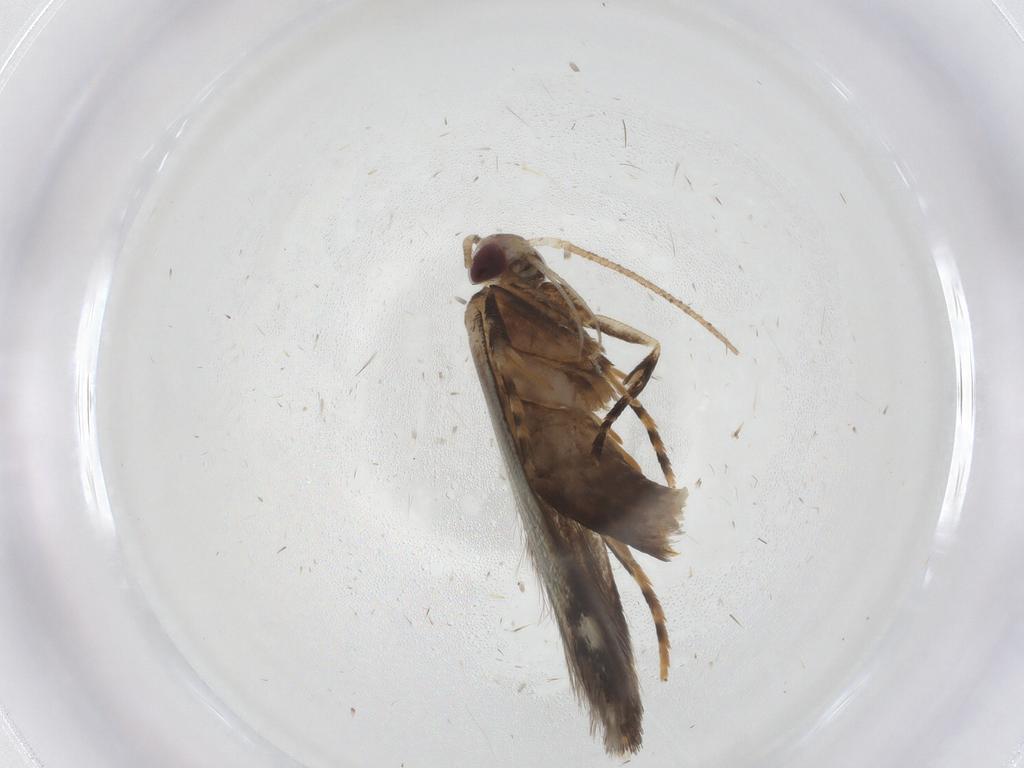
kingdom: Animalia
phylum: Arthropoda
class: Insecta
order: Lepidoptera
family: Cosmopterigidae
